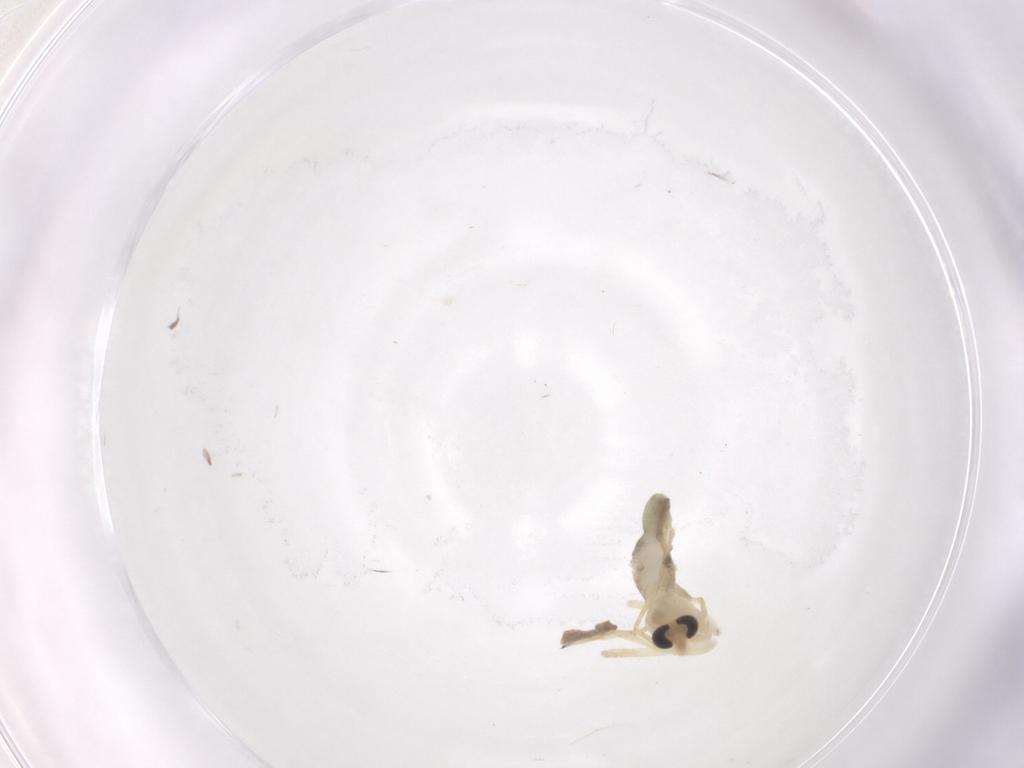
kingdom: Animalia
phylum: Arthropoda
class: Insecta
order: Diptera
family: Chironomidae
